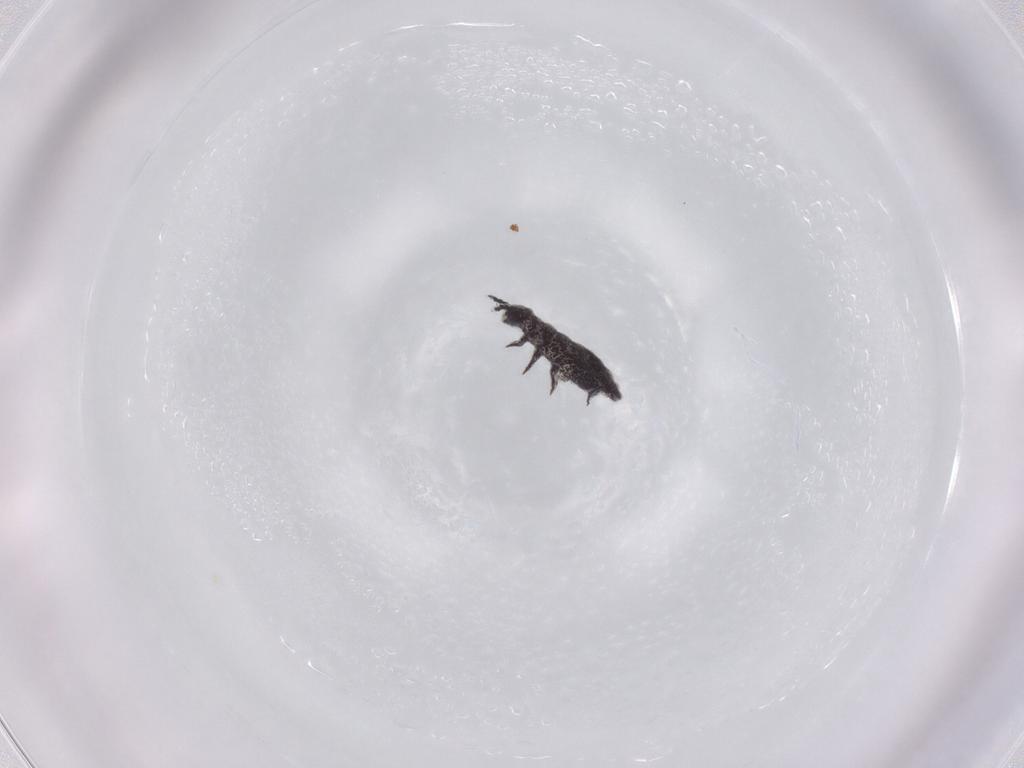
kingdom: Animalia
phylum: Arthropoda
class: Collembola
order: Poduromorpha
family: Hypogastruridae
